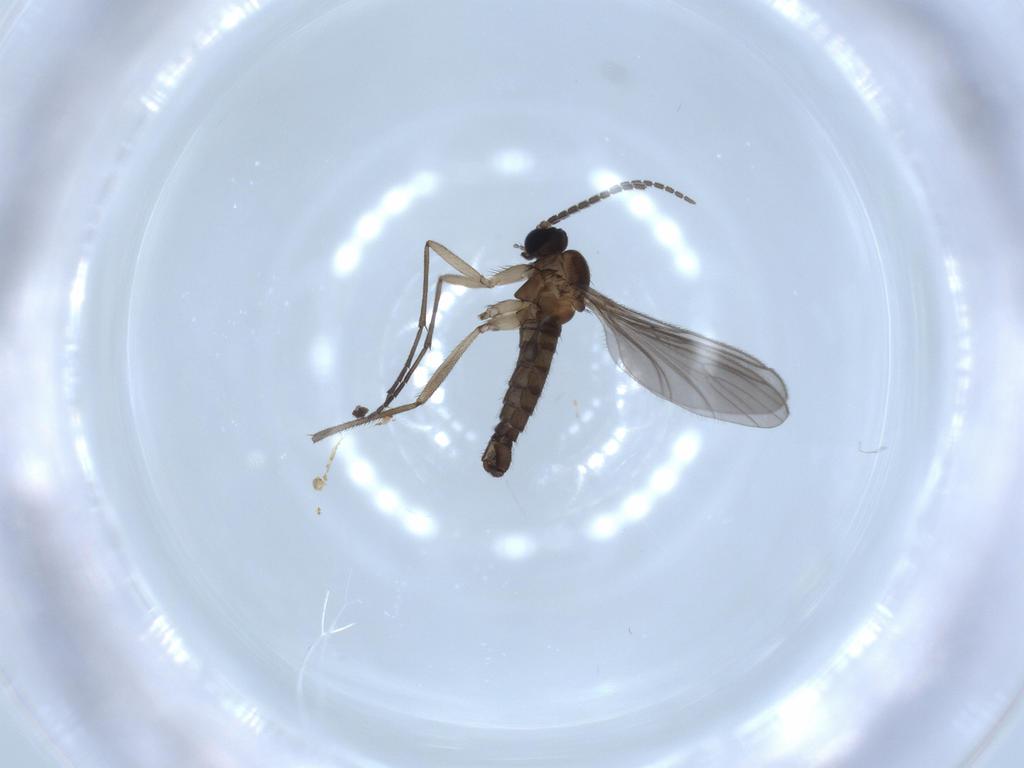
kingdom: Animalia
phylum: Arthropoda
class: Insecta
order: Diptera
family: Sciaridae
